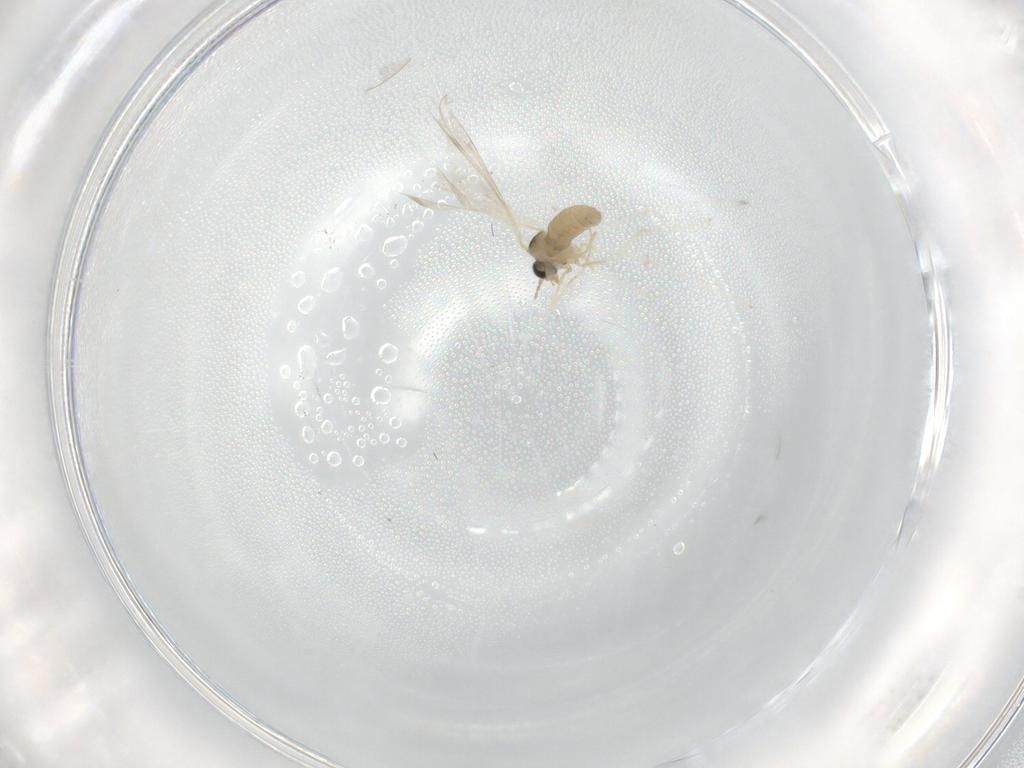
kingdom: Animalia
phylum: Arthropoda
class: Insecta
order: Diptera
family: Cecidomyiidae
